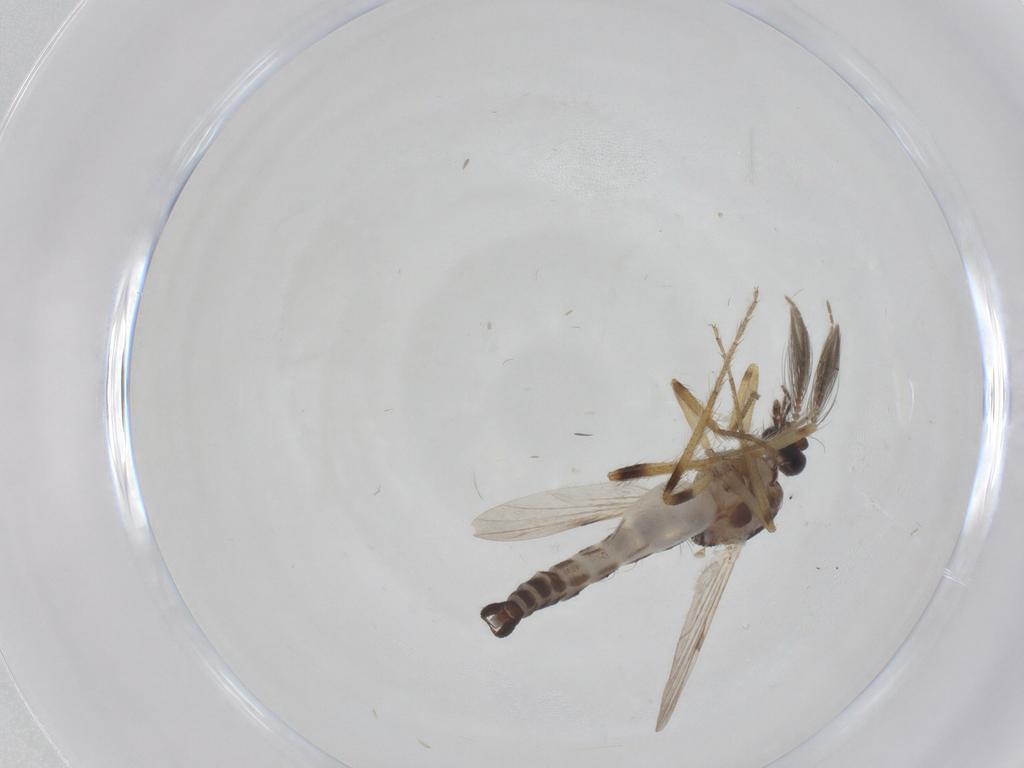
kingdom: Animalia
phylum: Arthropoda
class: Insecta
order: Diptera
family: Ceratopogonidae
